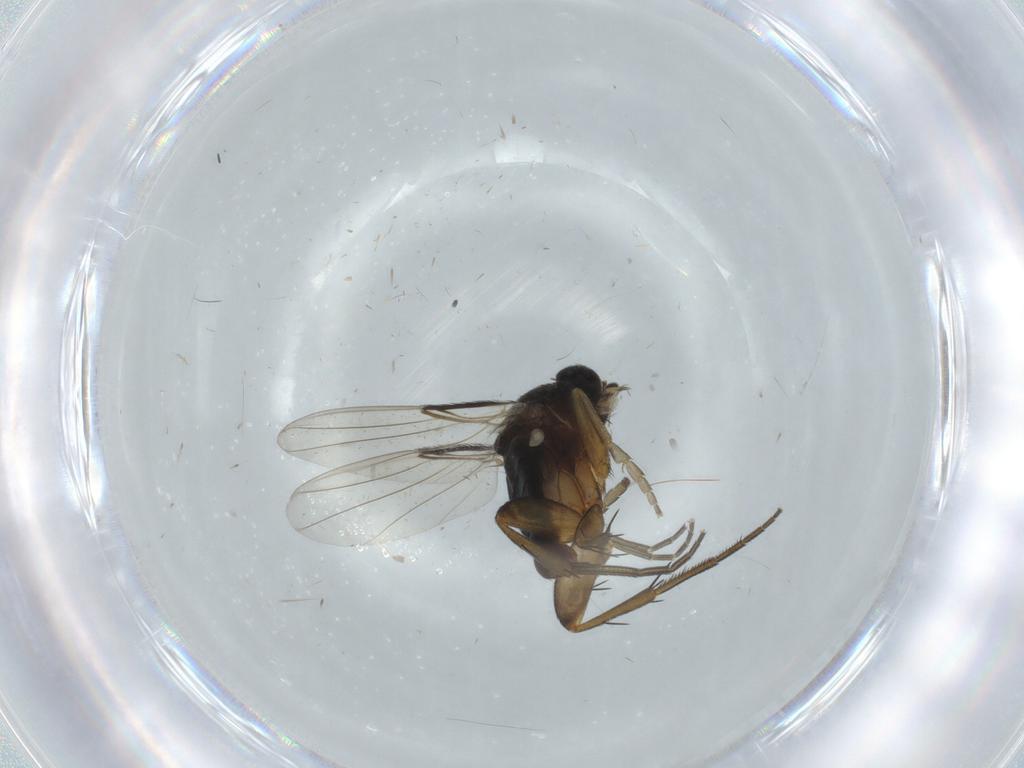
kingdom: Animalia
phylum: Arthropoda
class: Insecta
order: Diptera
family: Phoridae
